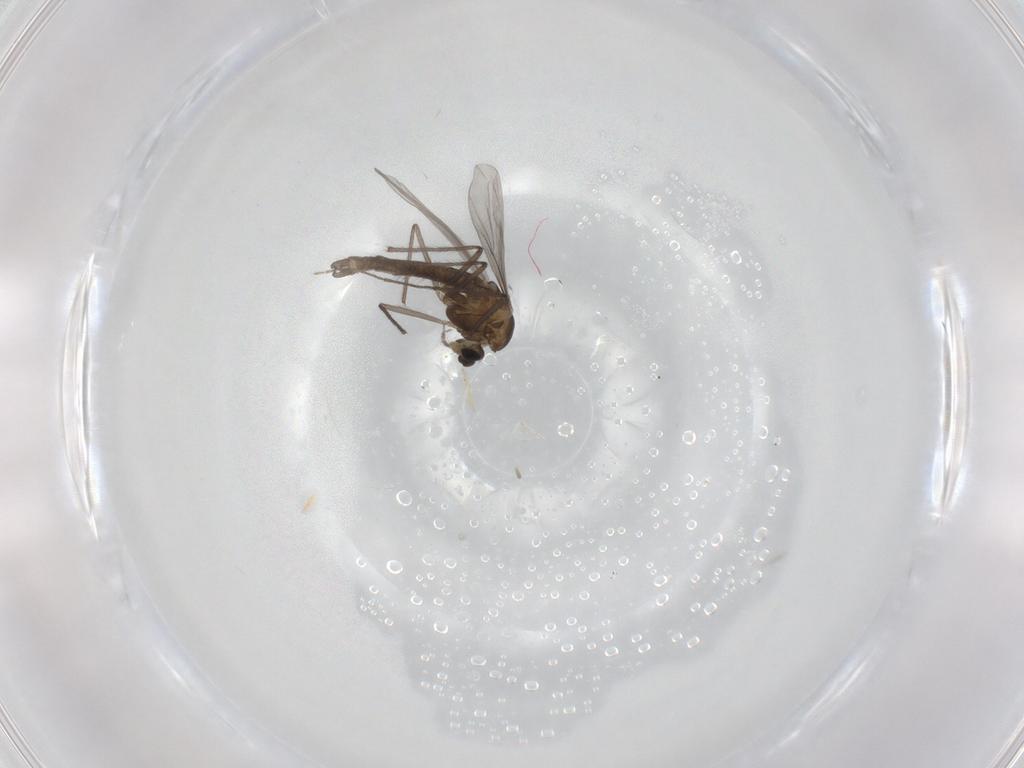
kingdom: Animalia
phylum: Arthropoda
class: Insecta
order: Diptera
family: Chironomidae
